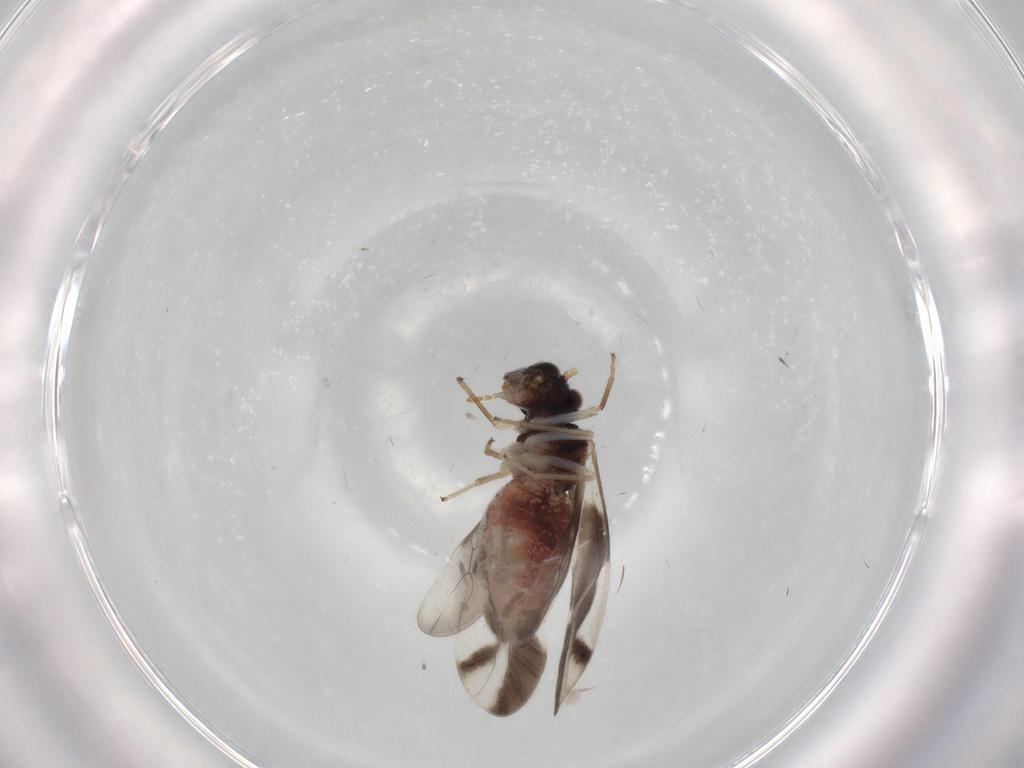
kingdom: Animalia
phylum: Arthropoda
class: Insecta
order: Psocodea
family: Caeciliusidae
